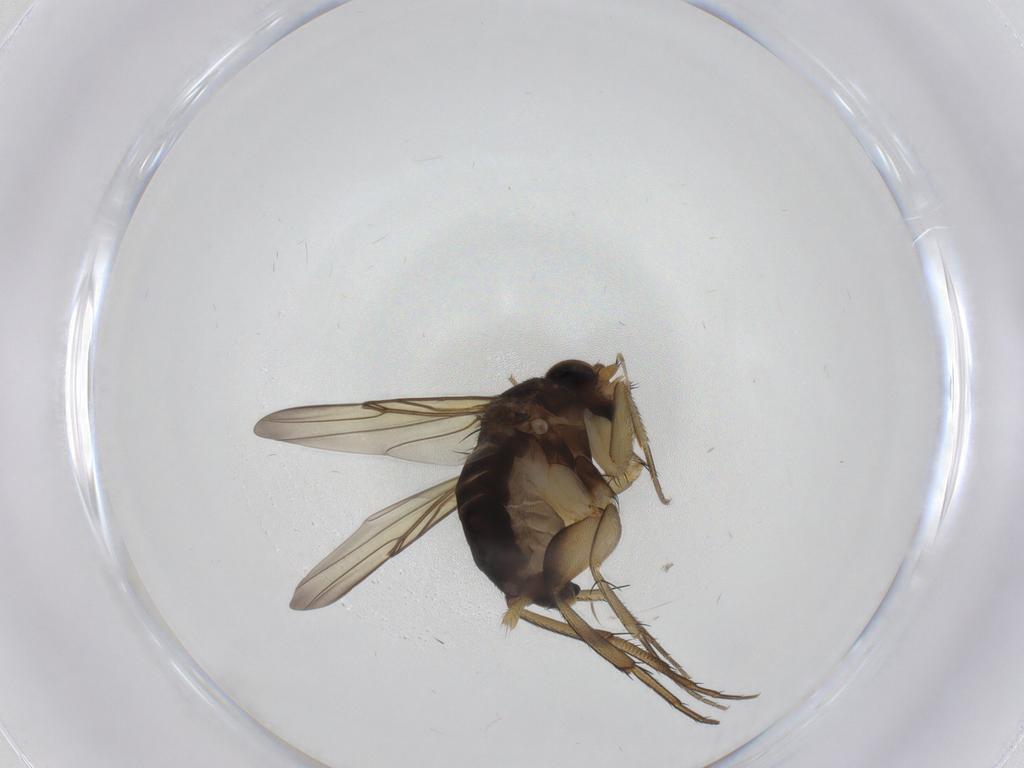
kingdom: Animalia
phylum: Arthropoda
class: Insecta
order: Diptera
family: Phoridae
